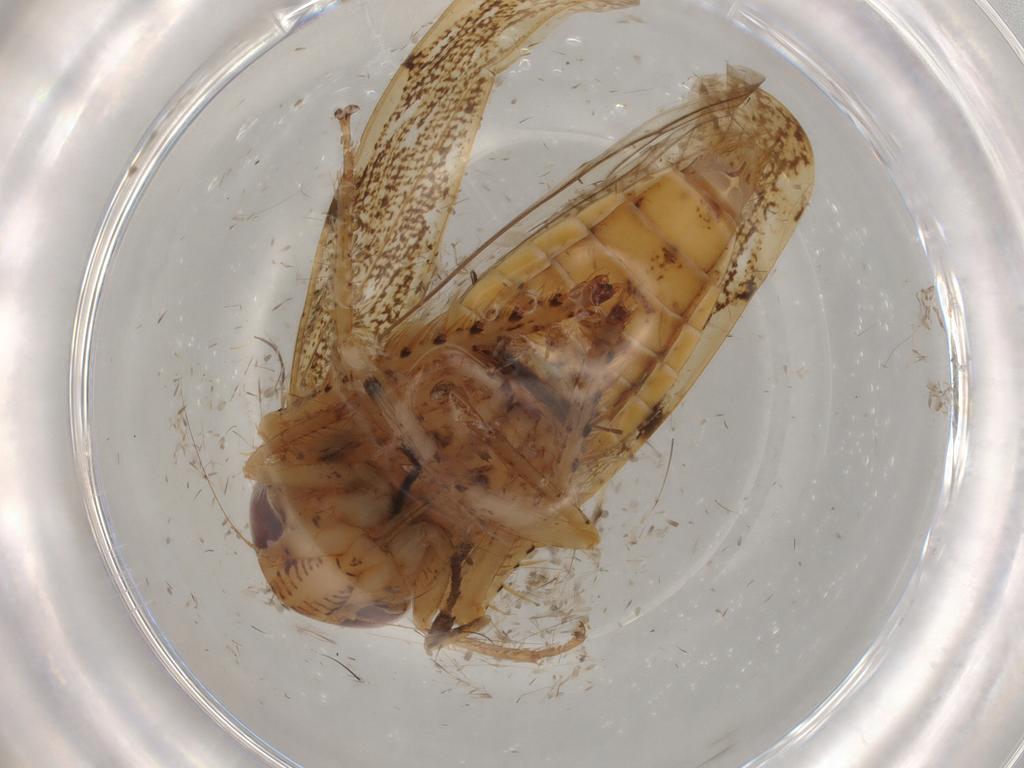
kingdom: Animalia
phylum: Arthropoda
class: Insecta
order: Hemiptera
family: Cicadellidae
